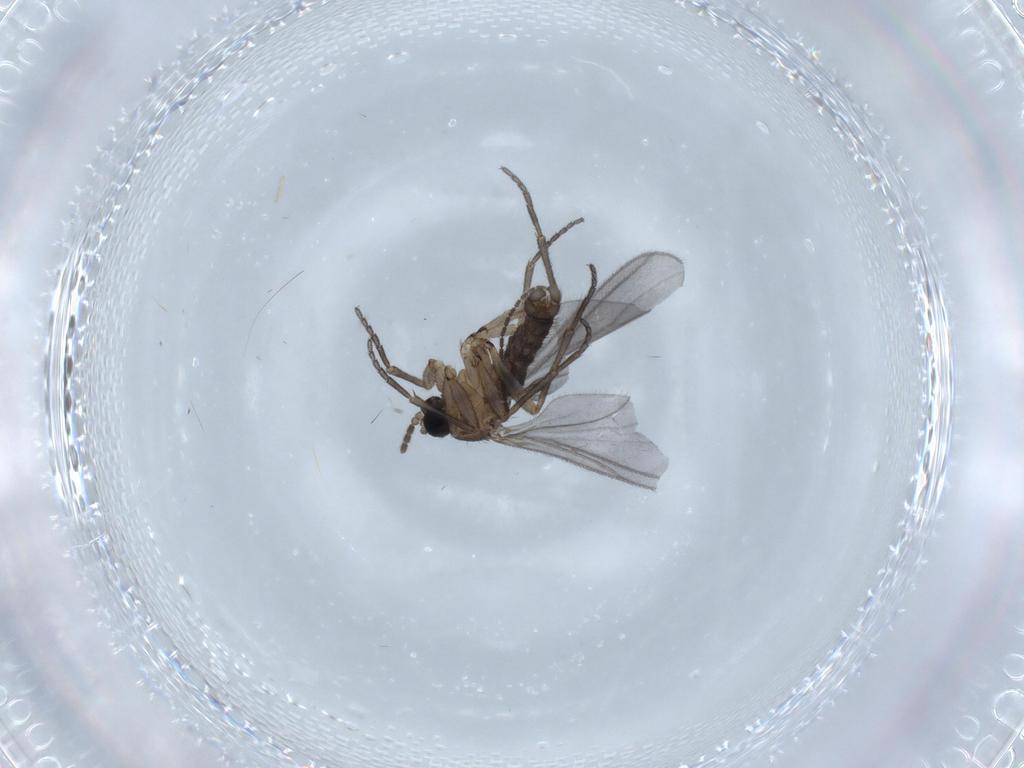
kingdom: Animalia
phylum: Arthropoda
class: Insecta
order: Diptera
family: Sciaridae
